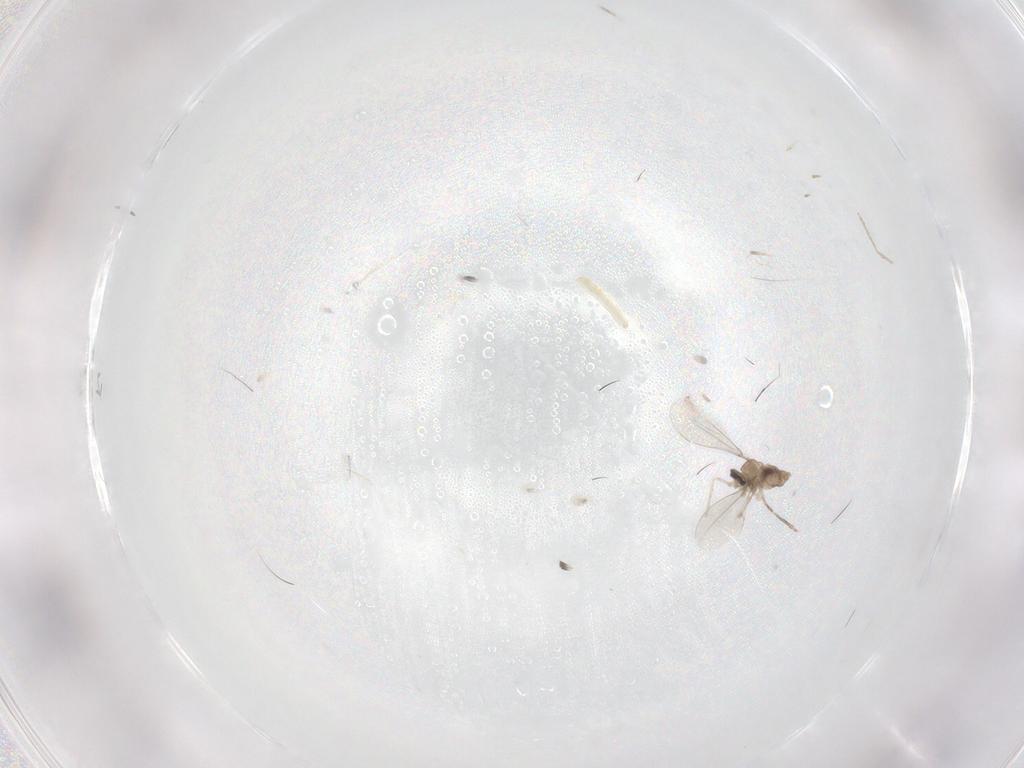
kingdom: Animalia
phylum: Arthropoda
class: Insecta
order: Diptera
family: Cecidomyiidae
